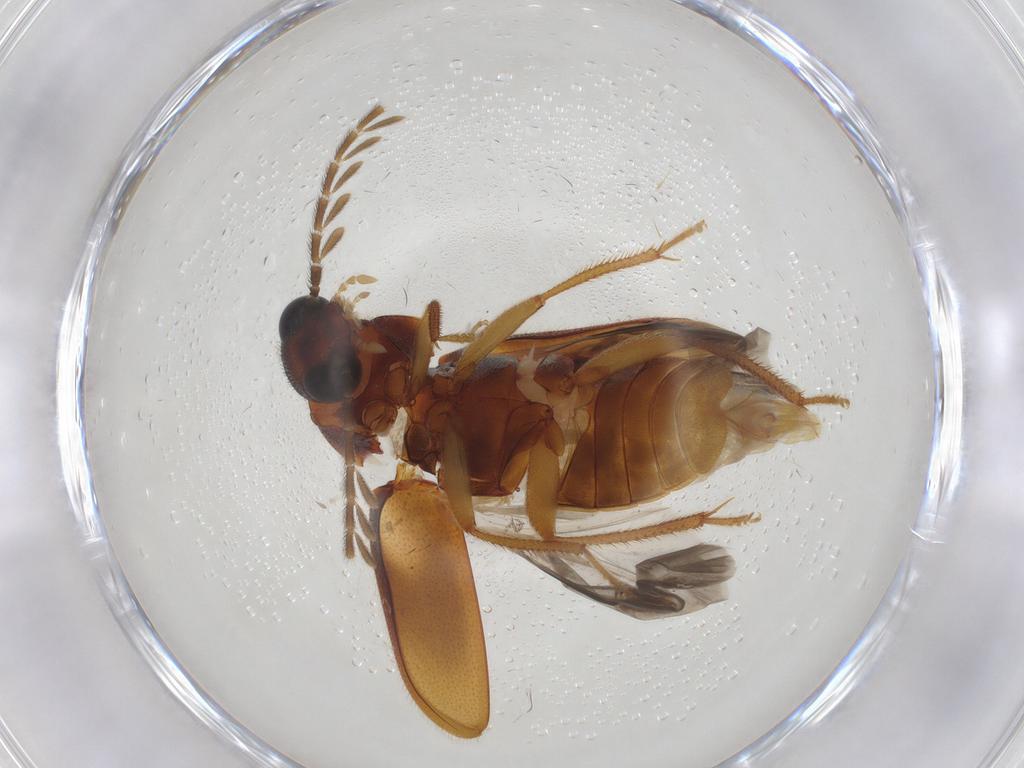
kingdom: Animalia
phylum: Arthropoda
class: Insecta
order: Coleoptera
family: Ptilodactylidae
